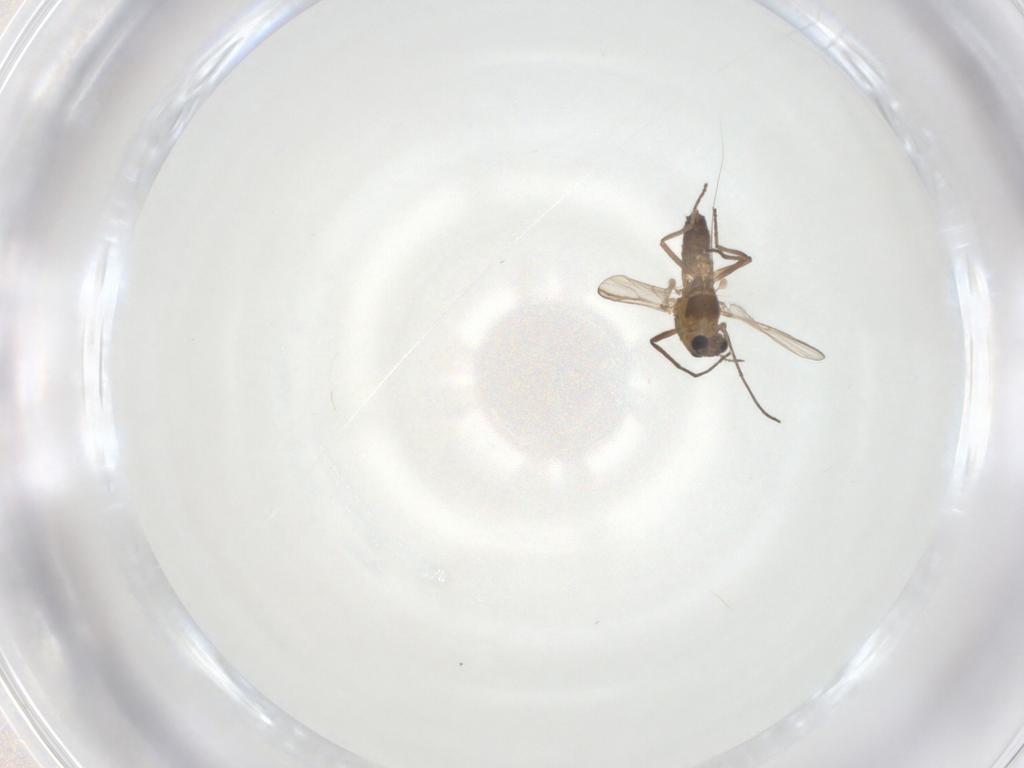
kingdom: Animalia
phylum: Arthropoda
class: Insecta
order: Diptera
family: Chironomidae
